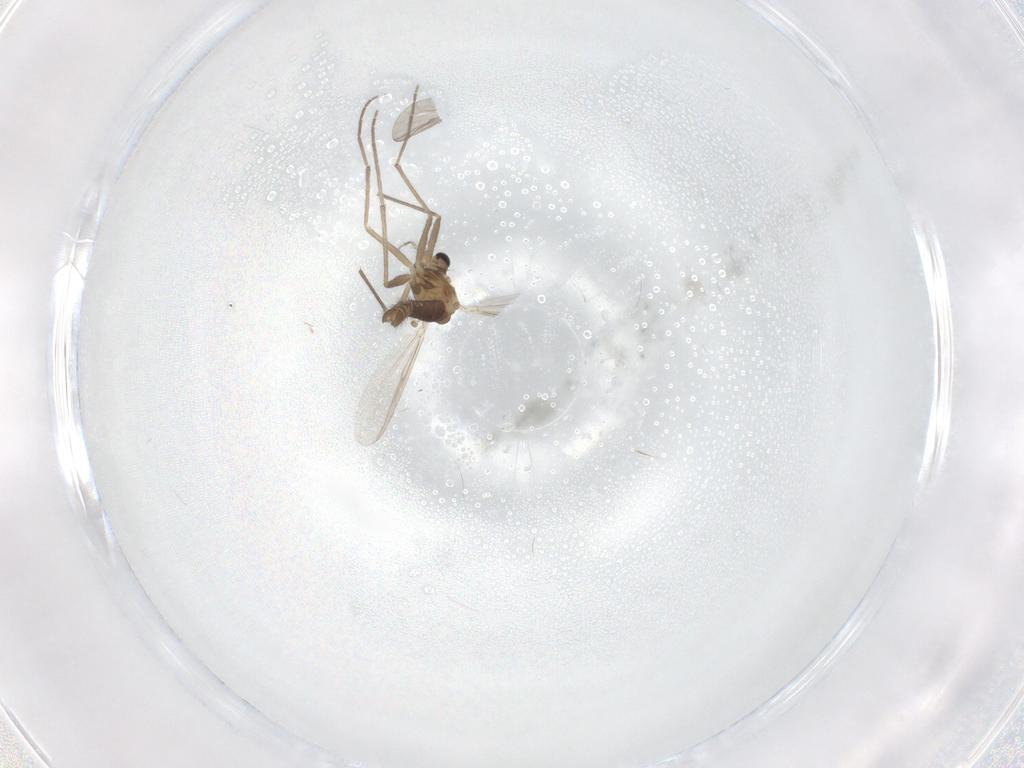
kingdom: Animalia
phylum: Arthropoda
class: Insecta
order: Diptera
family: Chironomidae
